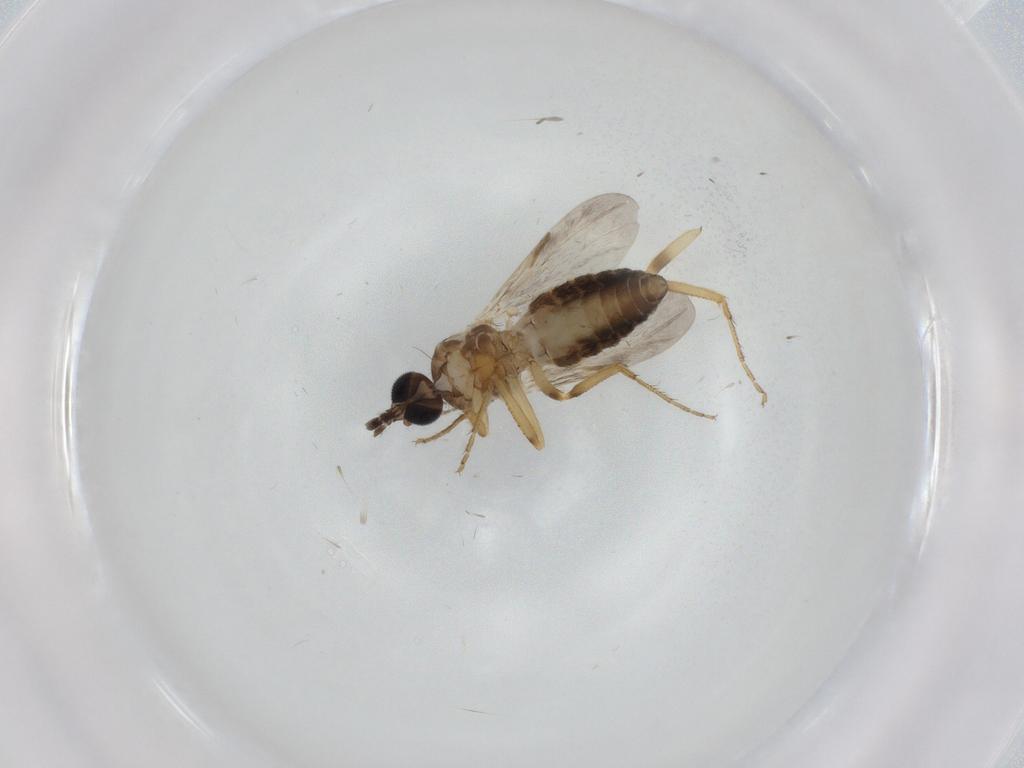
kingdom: Animalia
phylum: Arthropoda
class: Insecta
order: Diptera
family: Ceratopogonidae
